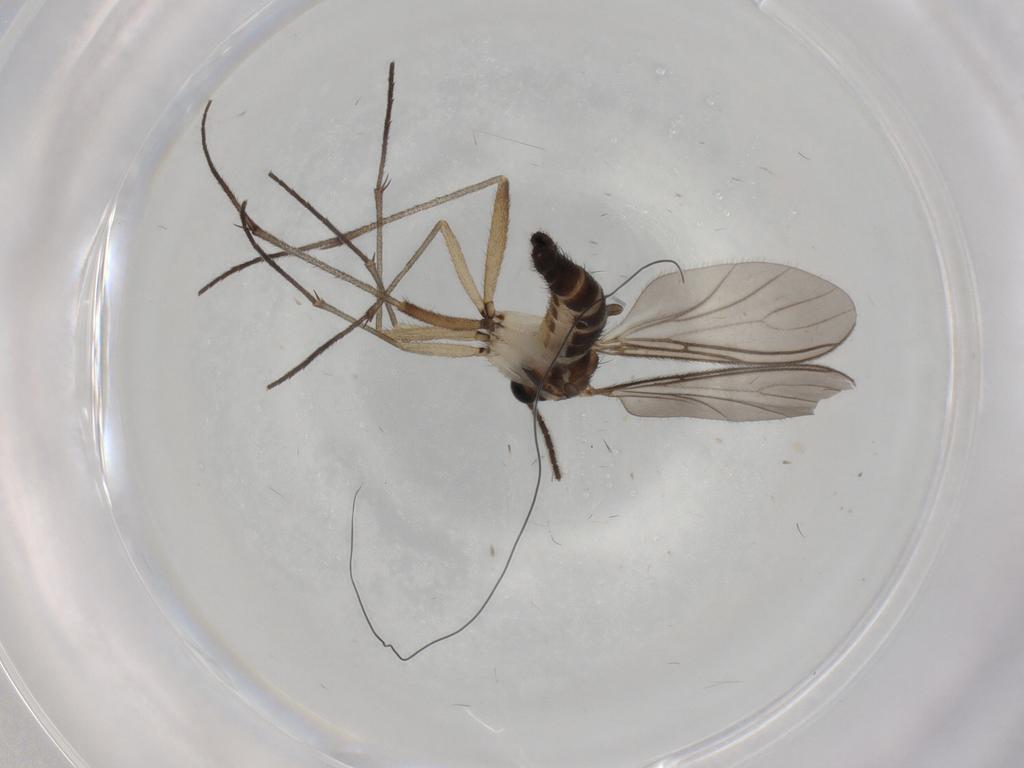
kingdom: Animalia
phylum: Arthropoda
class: Insecta
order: Diptera
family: Sciaridae
